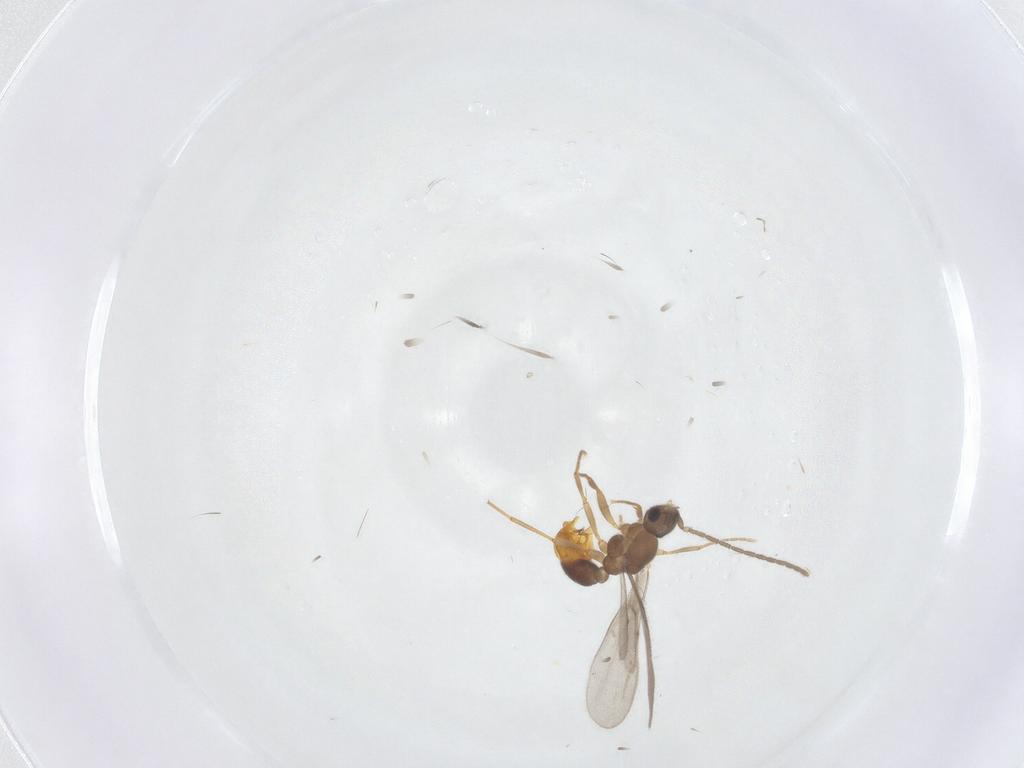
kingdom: Animalia
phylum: Arthropoda
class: Insecta
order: Hymenoptera
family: Formicidae
